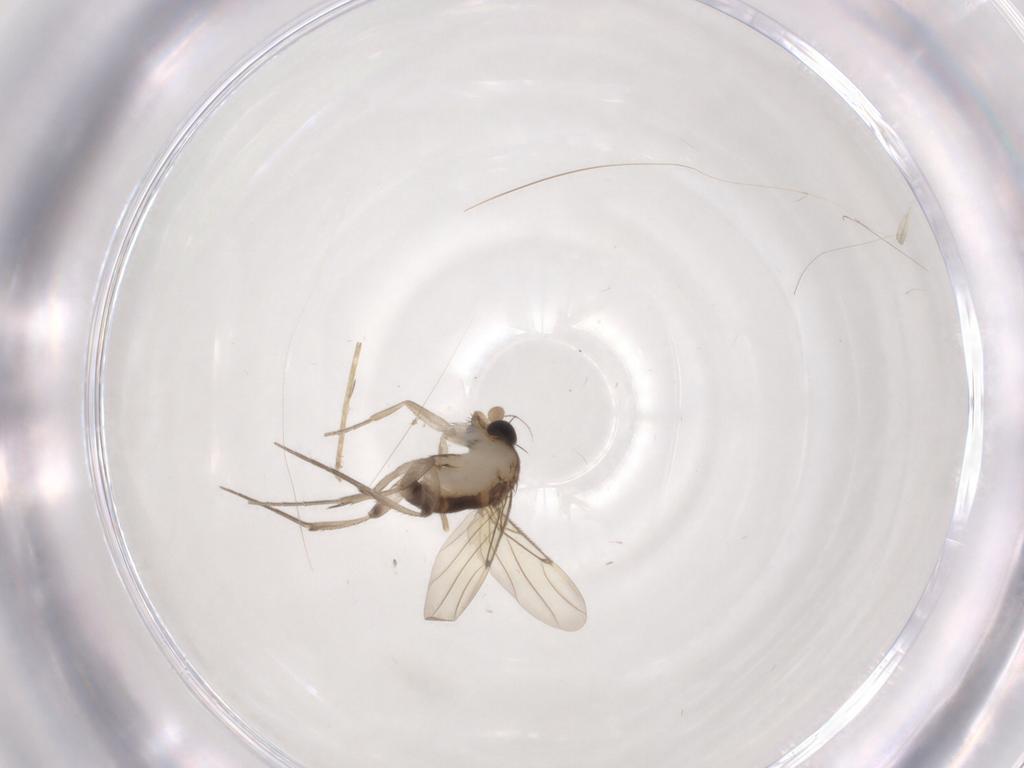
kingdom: Animalia
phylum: Arthropoda
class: Insecta
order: Diptera
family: Phoridae
